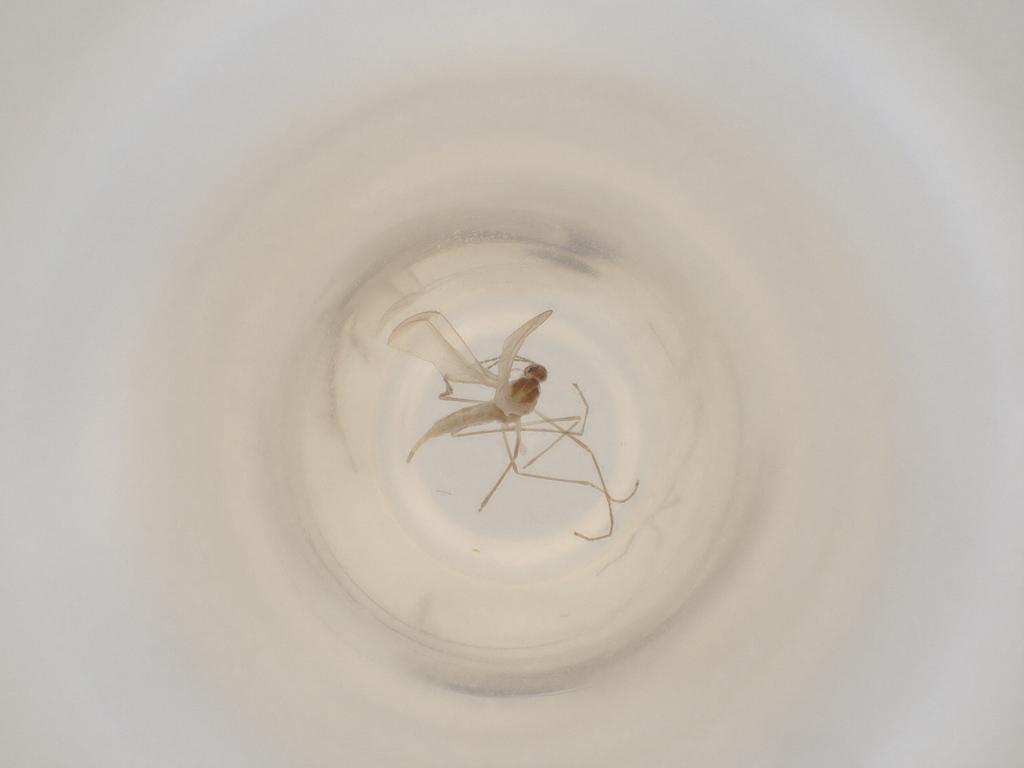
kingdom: Animalia
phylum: Arthropoda
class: Insecta
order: Diptera
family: Cecidomyiidae
